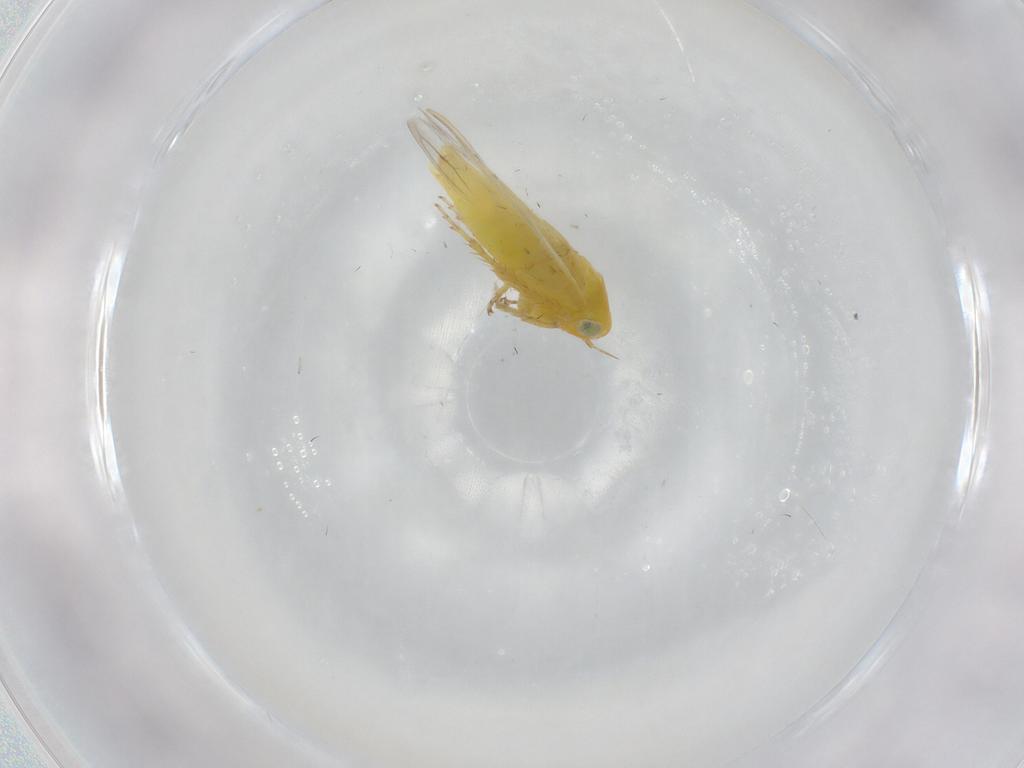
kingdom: Animalia
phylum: Arthropoda
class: Insecta
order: Hemiptera
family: Cicadellidae
